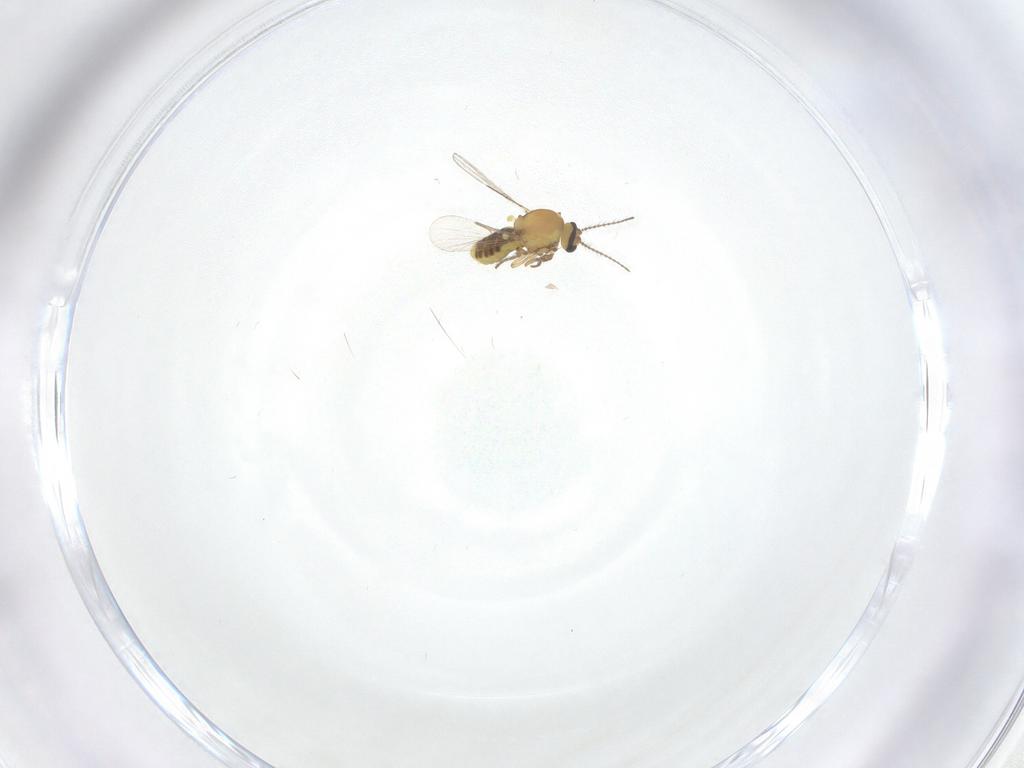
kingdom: Animalia
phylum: Arthropoda
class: Insecta
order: Diptera
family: Ceratopogonidae
